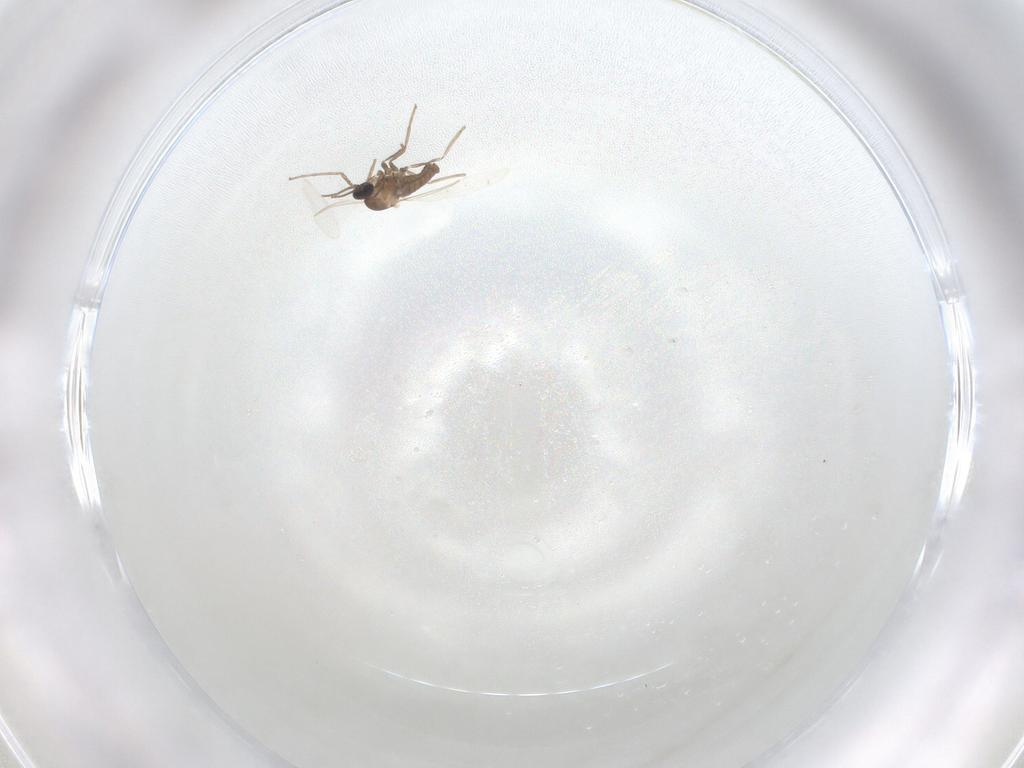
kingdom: Animalia
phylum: Arthropoda
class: Insecta
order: Diptera
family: Cecidomyiidae
